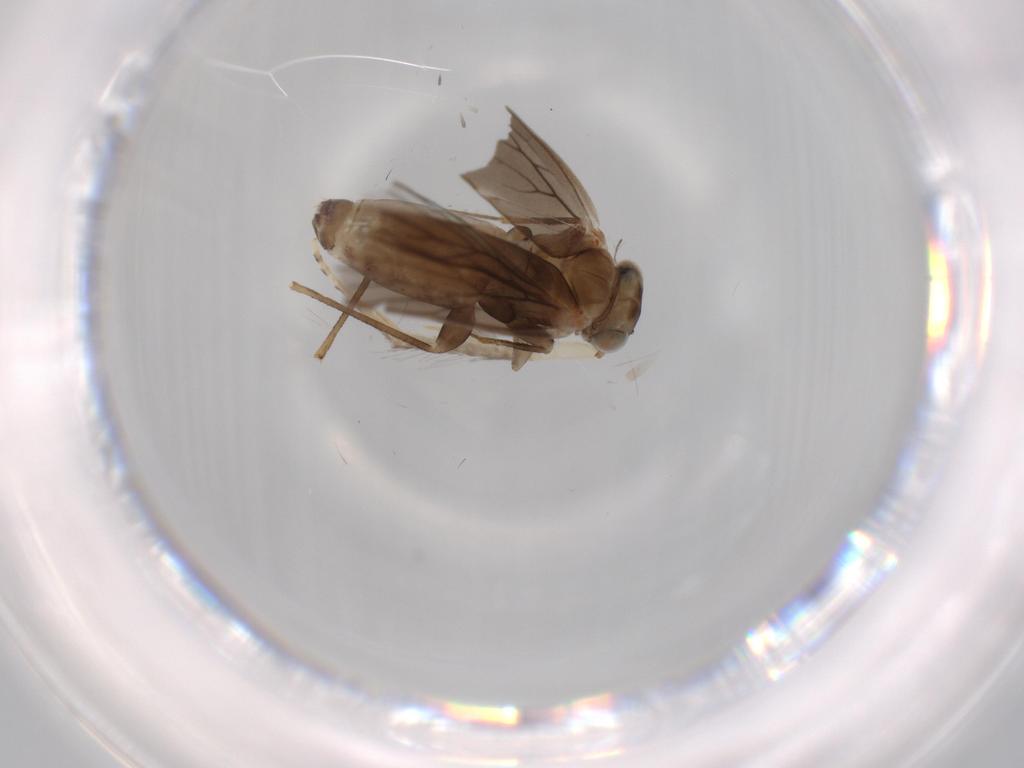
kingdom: Animalia
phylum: Arthropoda
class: Insecta
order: Psocodea
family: Lepidopsocidae
